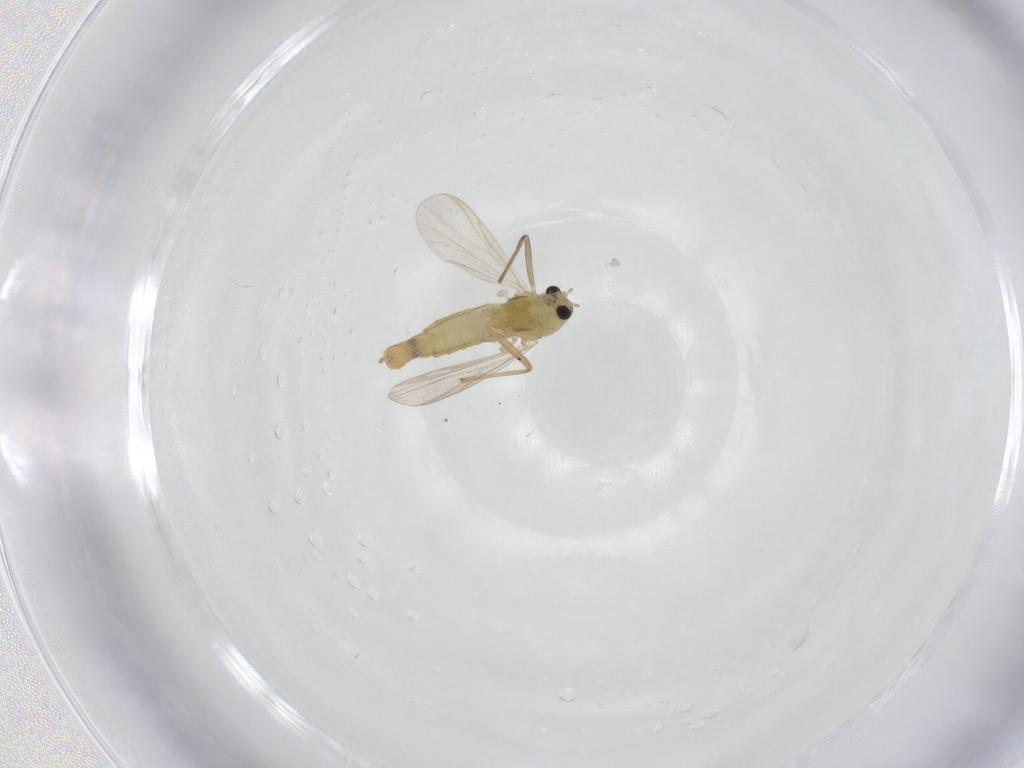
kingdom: Animalia
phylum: Arthropoda
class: Insecta
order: Diptera
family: Chironomidae
